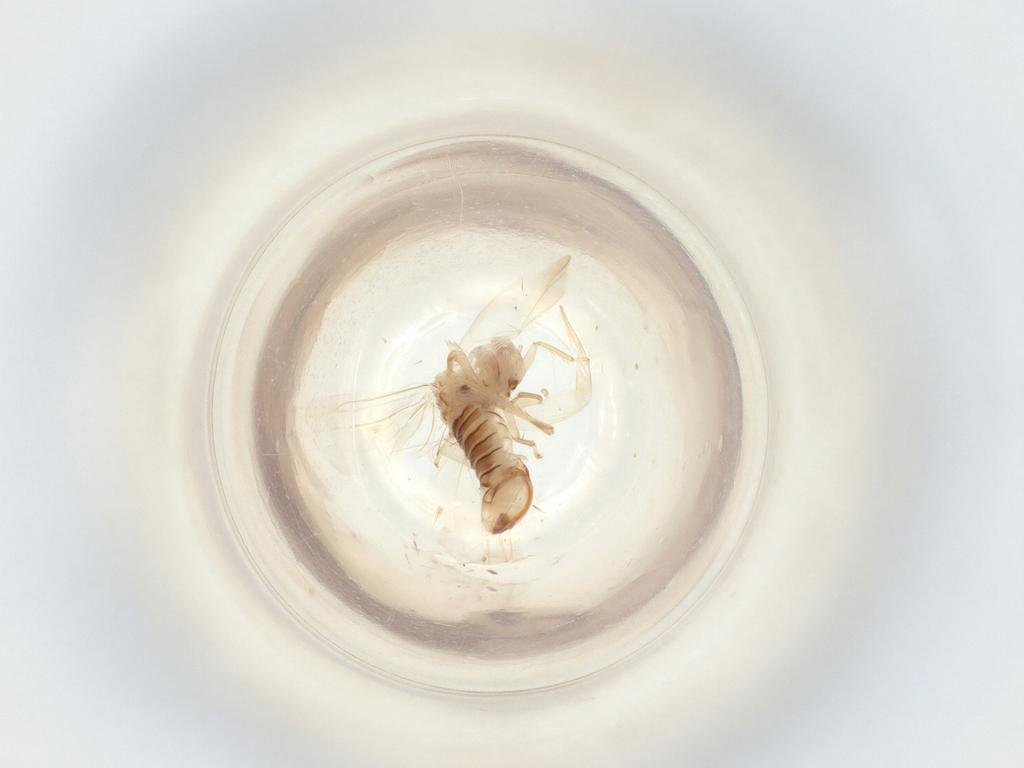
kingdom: Animalia
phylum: Arthropoda
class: Insecta
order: Hemiptera
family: Cicadellidae
